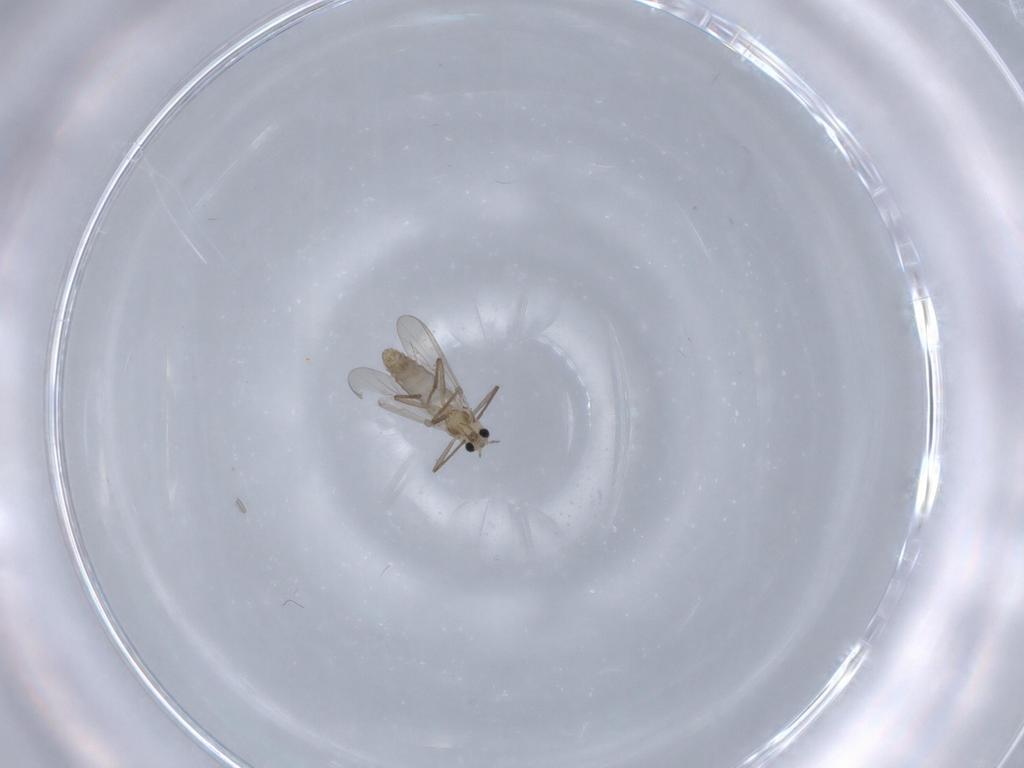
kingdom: Animalia
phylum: Arthropoda
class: Insecta
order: Diptera
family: Chironomidae
